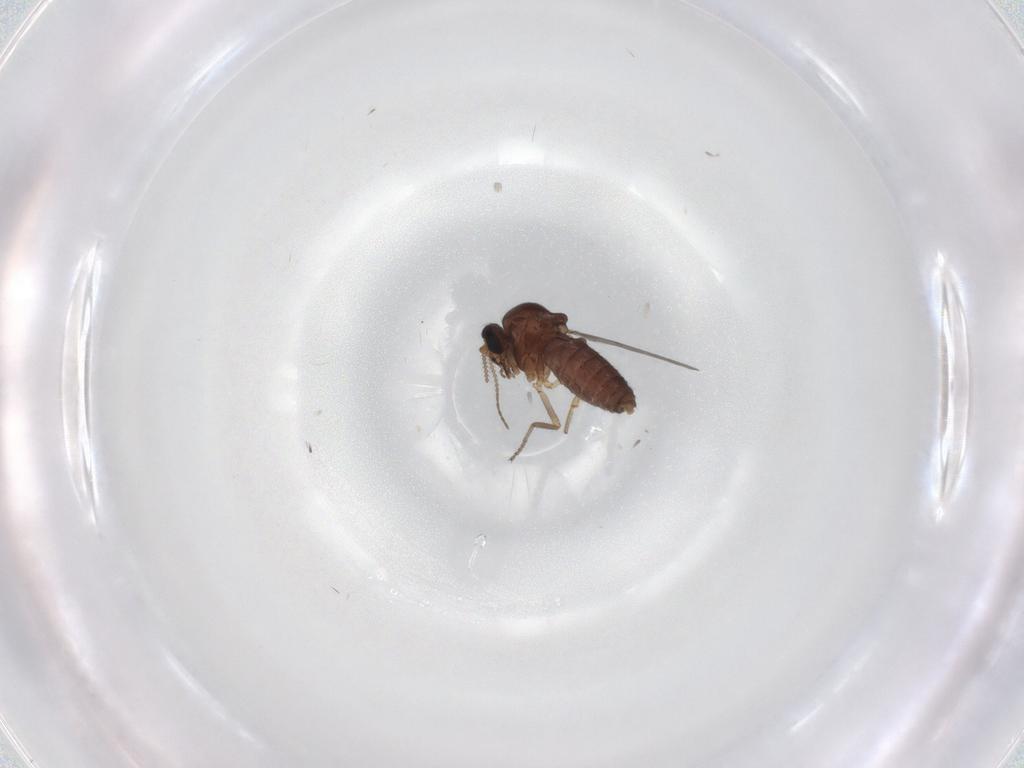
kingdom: Animalia
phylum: Arthropoda
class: Insecta
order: Diptera
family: Ceratopogonidae
